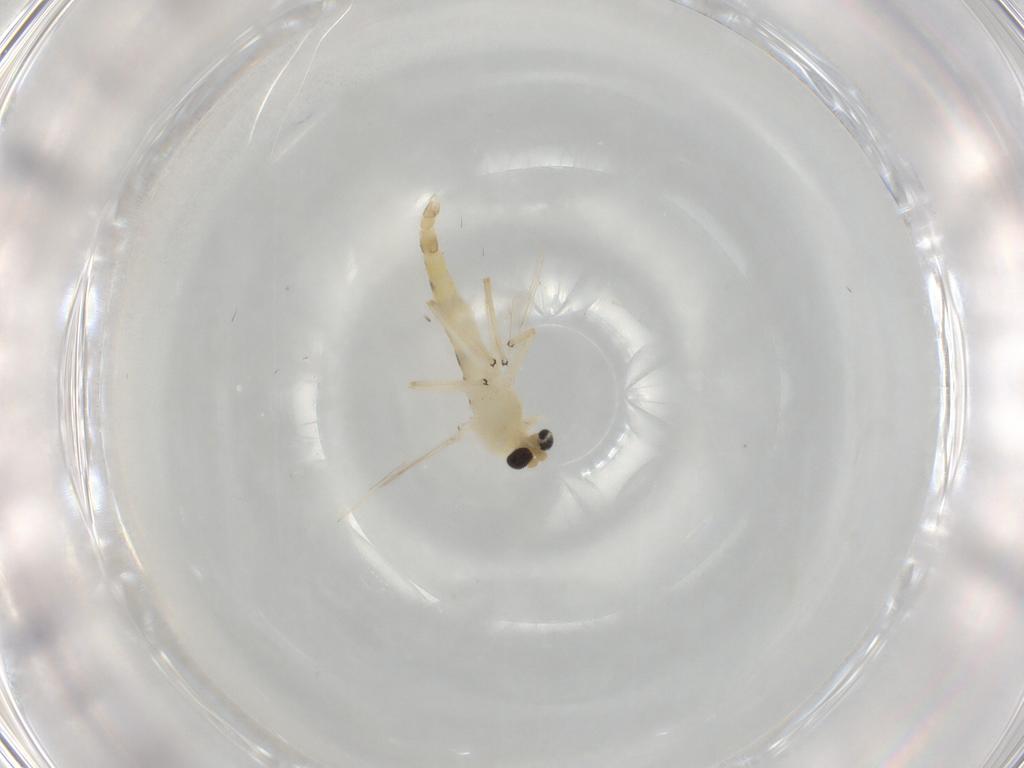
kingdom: Animalia
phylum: Arthropoda
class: Insecta
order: Diptera
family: Chironomidae
